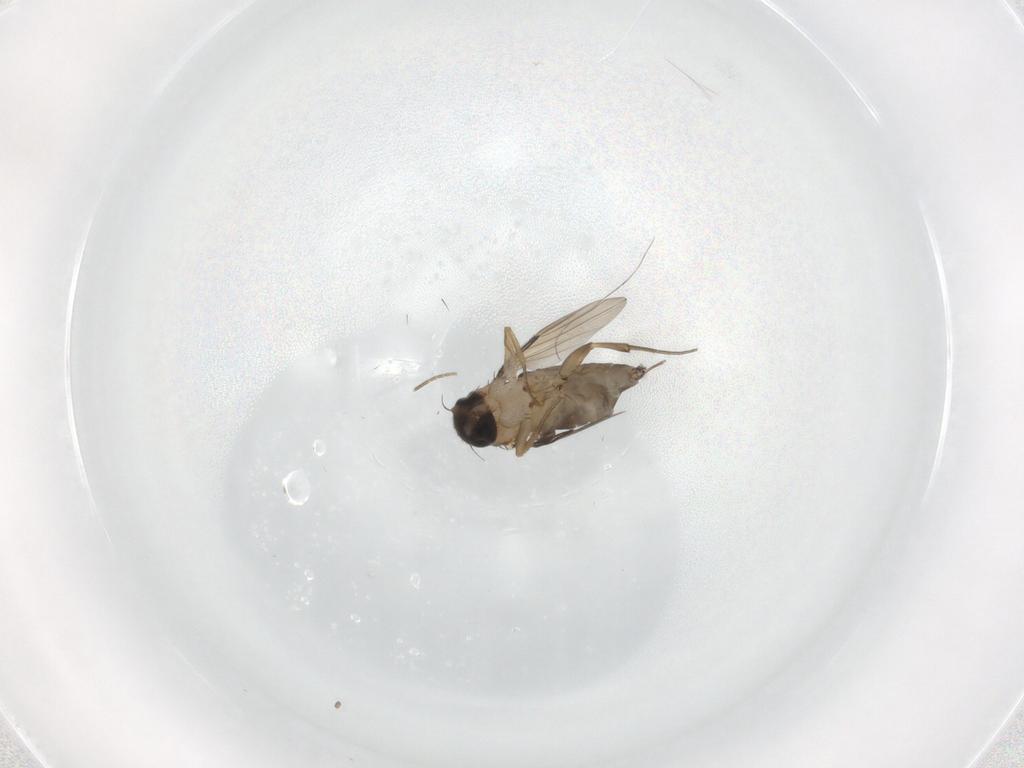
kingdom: Animalia
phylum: Arthropoda
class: Insecta
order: Diptera
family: Phoridae
